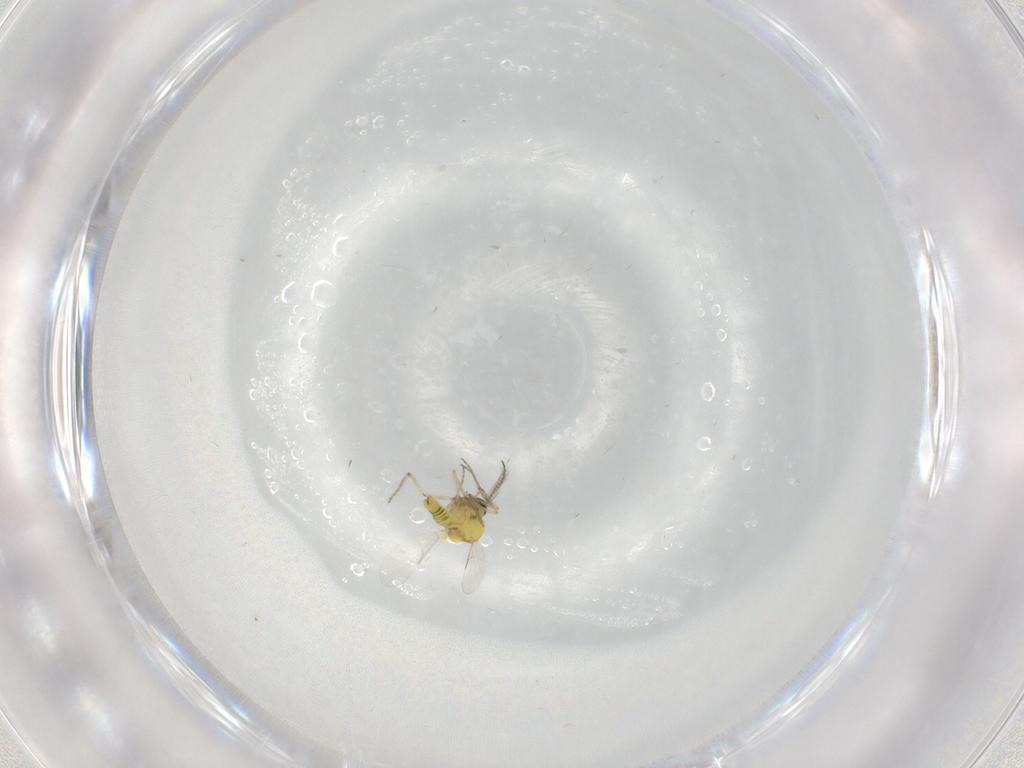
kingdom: Animalia
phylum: Arthropoda
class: Insecta
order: Diptera
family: Ceratopogonidae
